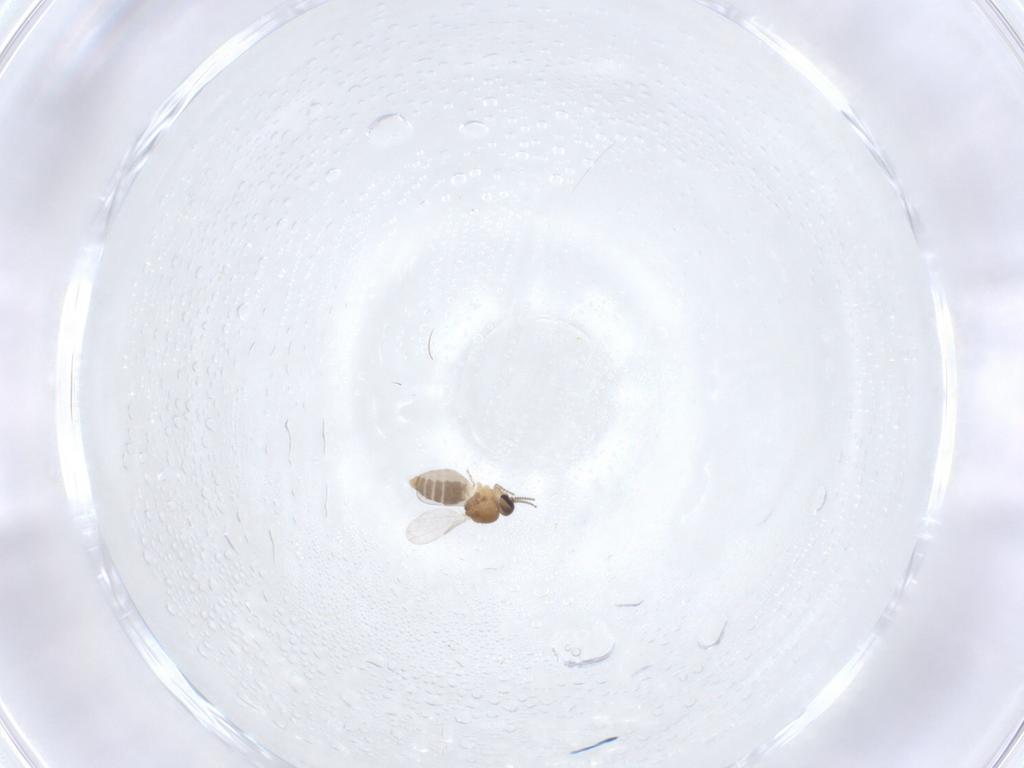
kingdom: Animalia
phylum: Arthropoda
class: Insecta
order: Diptera
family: Ceratopogonidae
